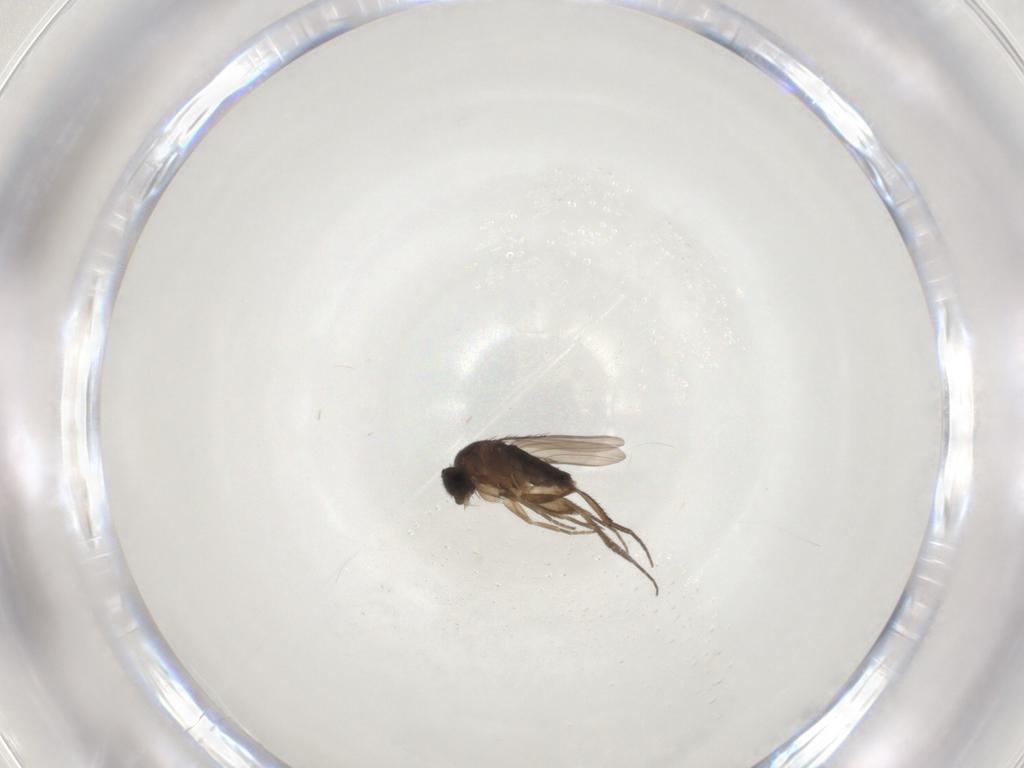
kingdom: Animalia
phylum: Arthropoda
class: Insecta
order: Diptera
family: Phoridae
